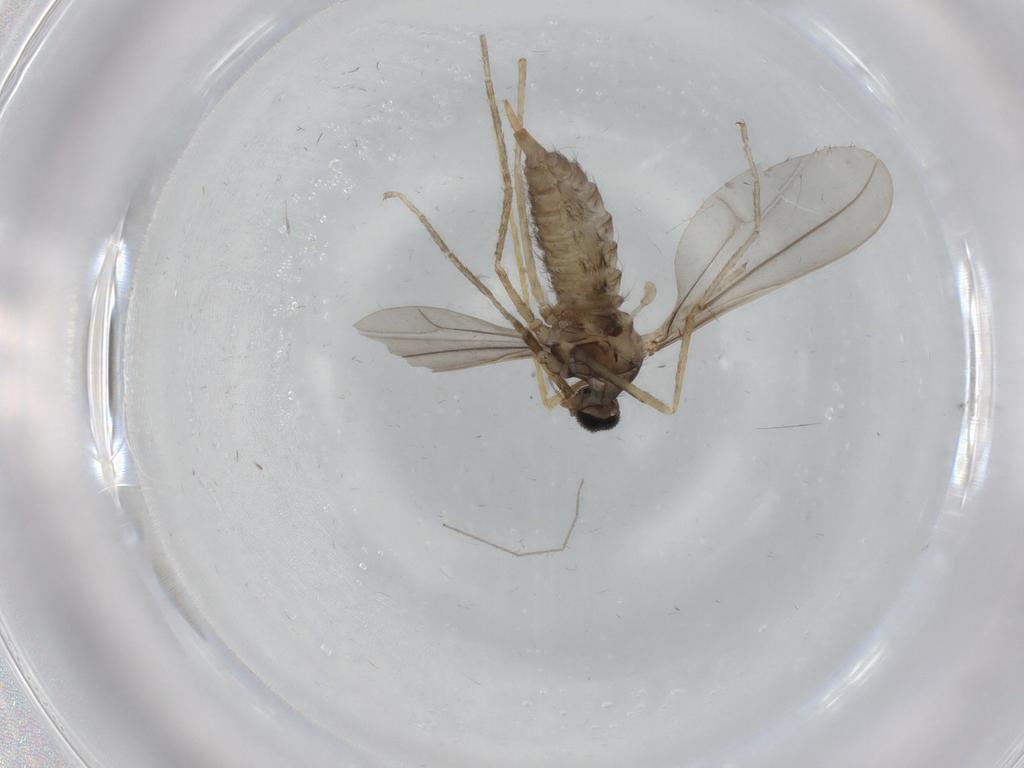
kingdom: Animalia
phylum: Arthropoda
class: Insecta
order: Diptera
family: Cecidomyiidae
